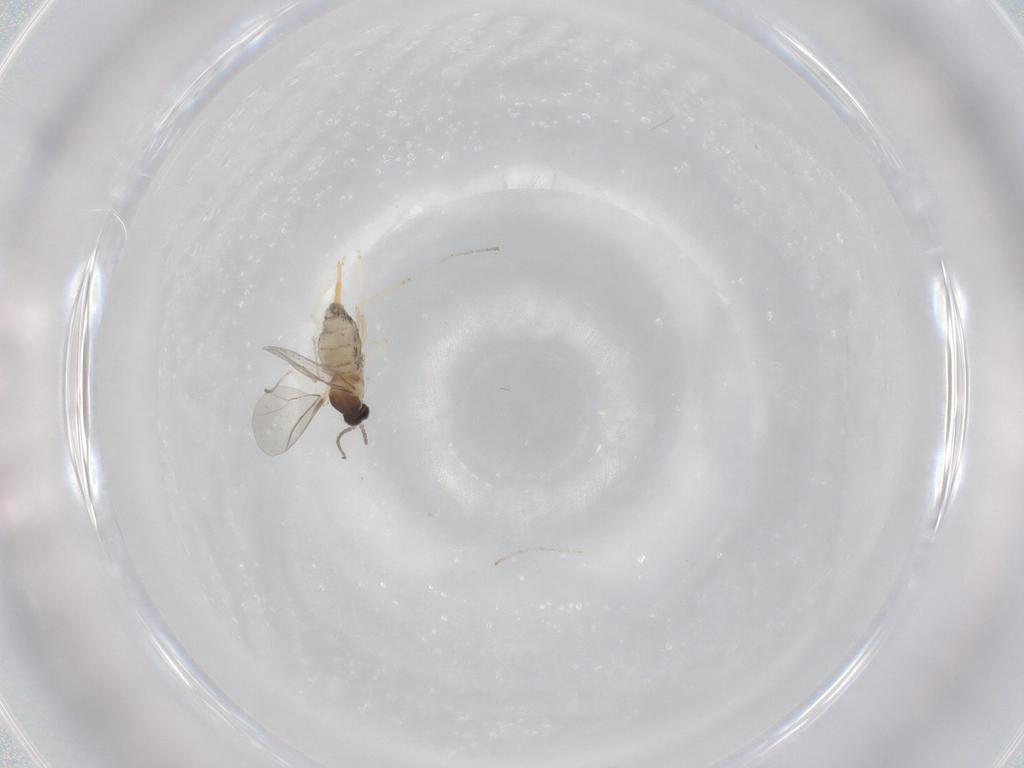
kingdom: Animalia
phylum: Arthropoda
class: Insecta
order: Diptera
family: Cecidomyiidae
